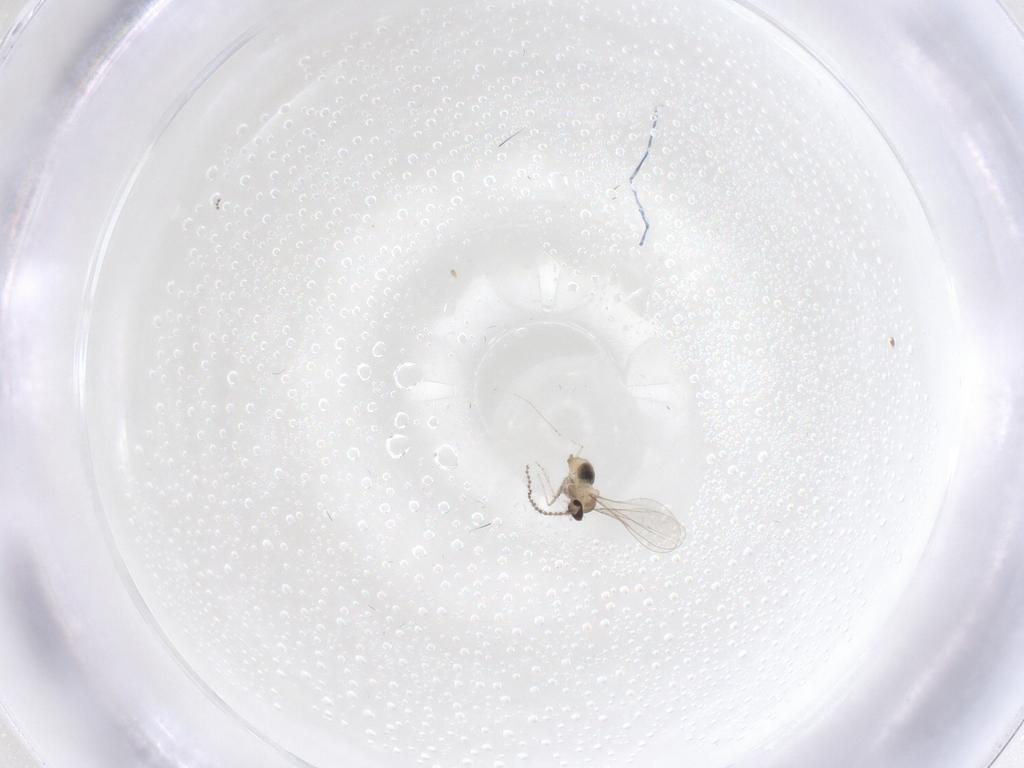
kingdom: Animalia
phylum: Arthropoda
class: Insecta
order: Diptera
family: Cecidomyiidae
